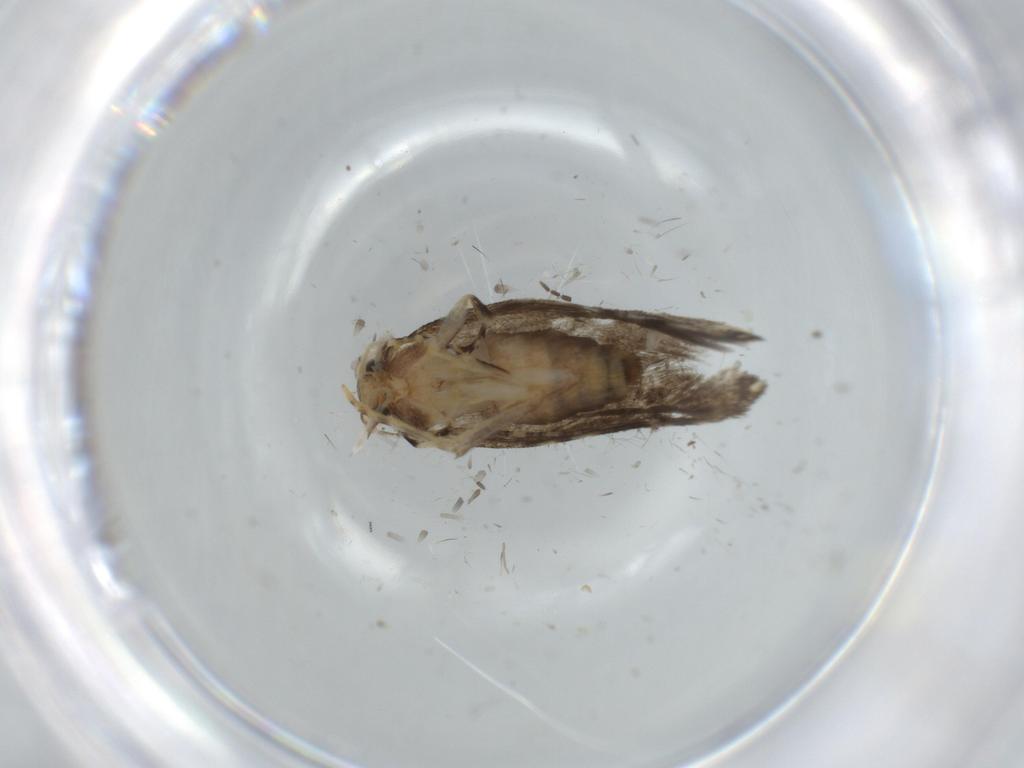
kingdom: Animalia
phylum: Arthropoda
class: Insecta
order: Lepidoptera
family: Tineidae
